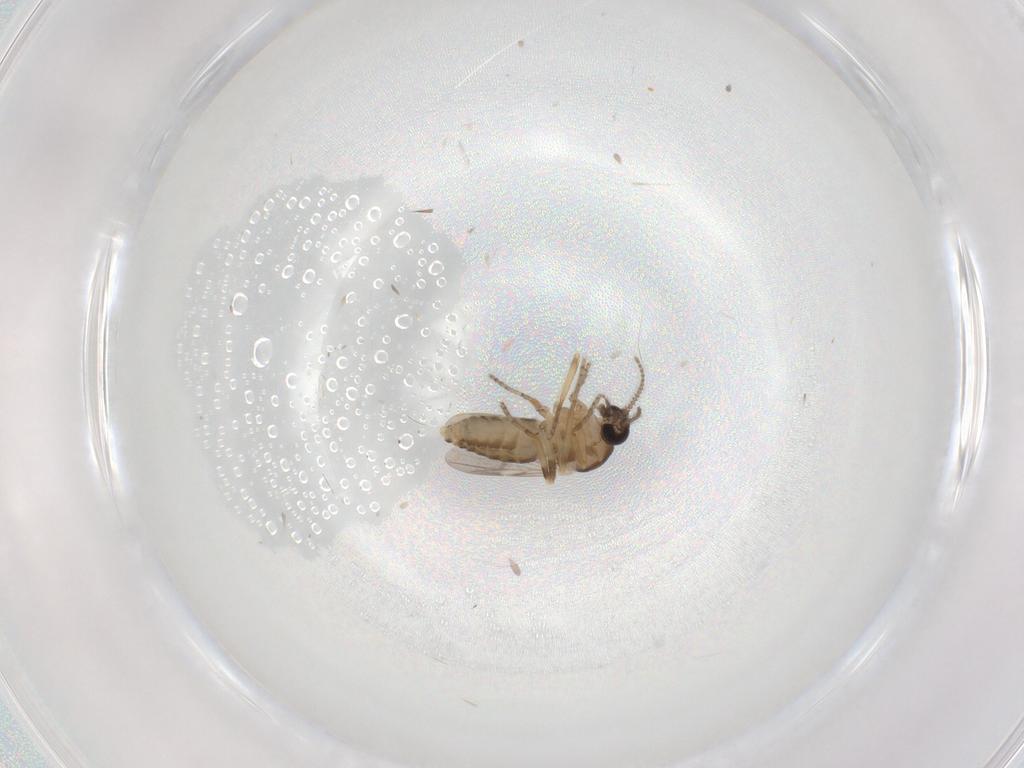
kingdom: Animalia
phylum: Arthropoda
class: Insecta
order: Diptera
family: Ceratopogonidae
